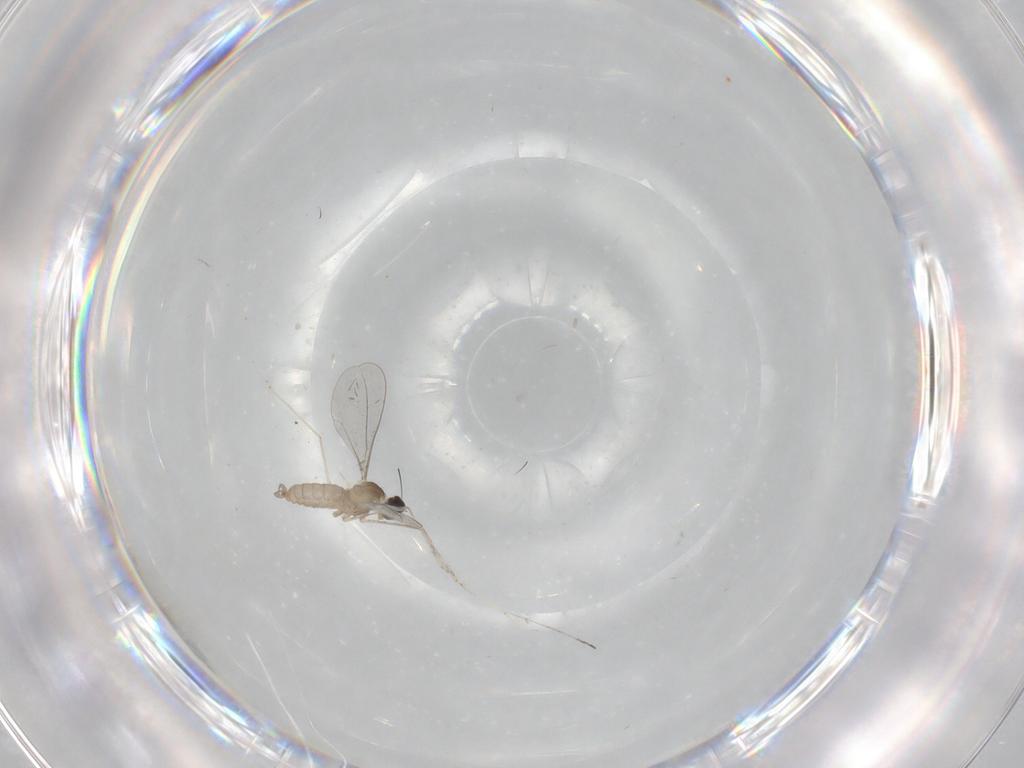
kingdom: Animalia
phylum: Arthropoda
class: Insecta
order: Diptera
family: Cecidomyiidae
